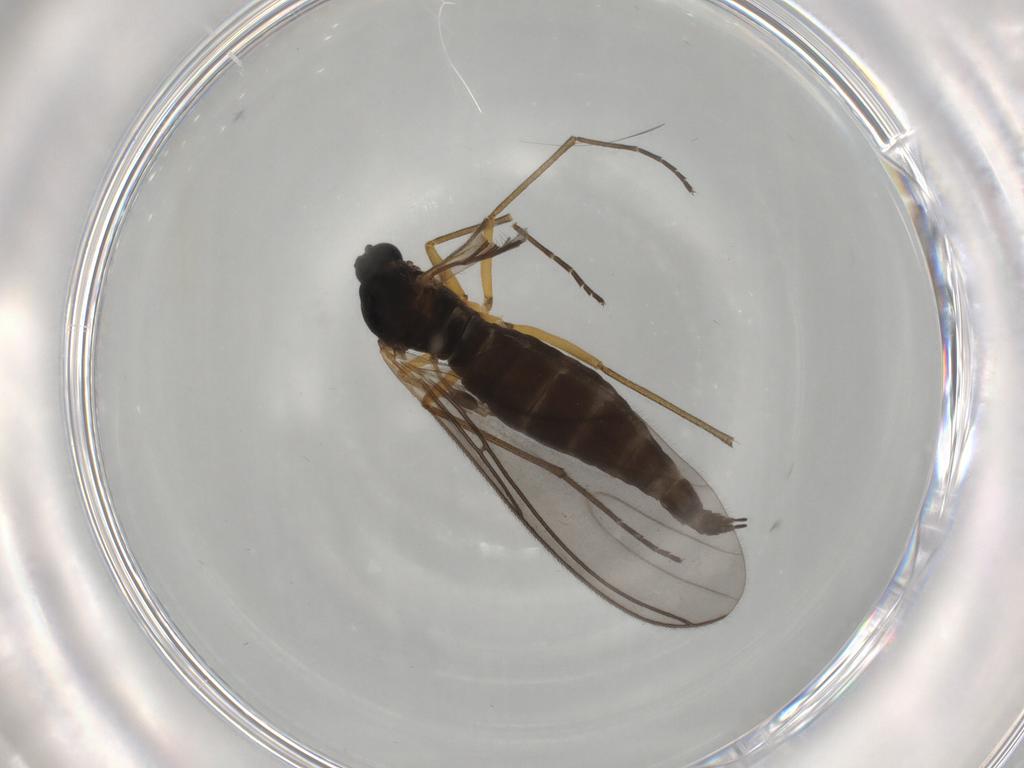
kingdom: Animalia
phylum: Arthropoda
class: Insecta
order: Diptera
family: Sciaridae
